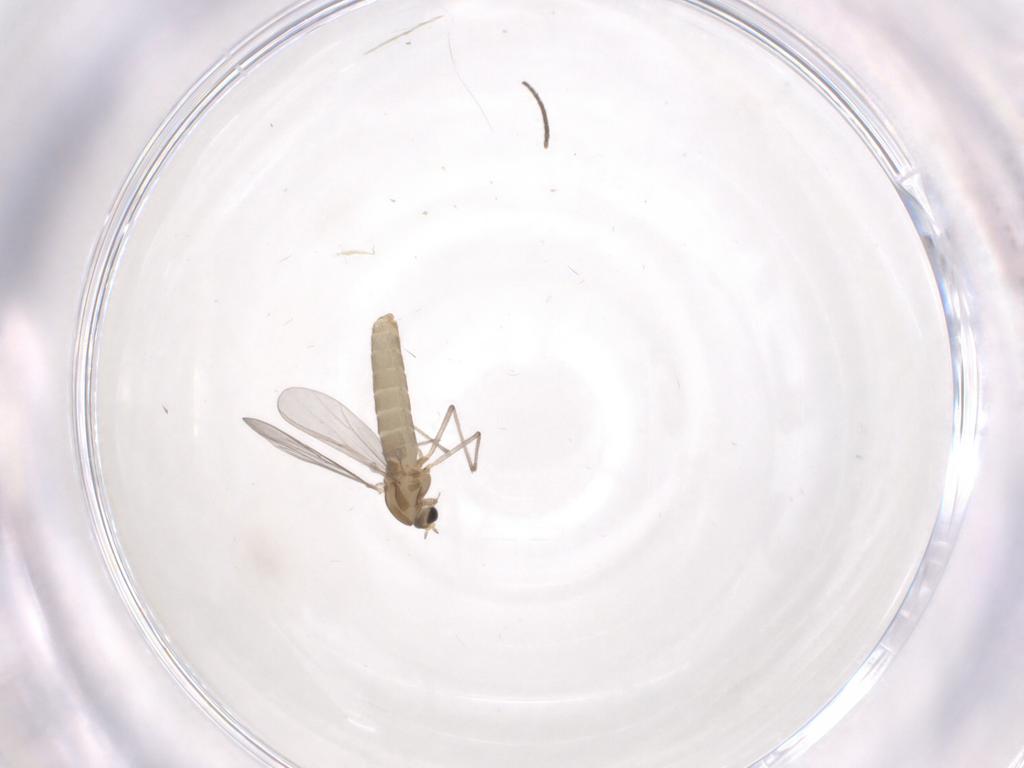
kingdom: Animalia
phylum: Arthropoda
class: Insecta
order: Diptera
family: Sciaridae
